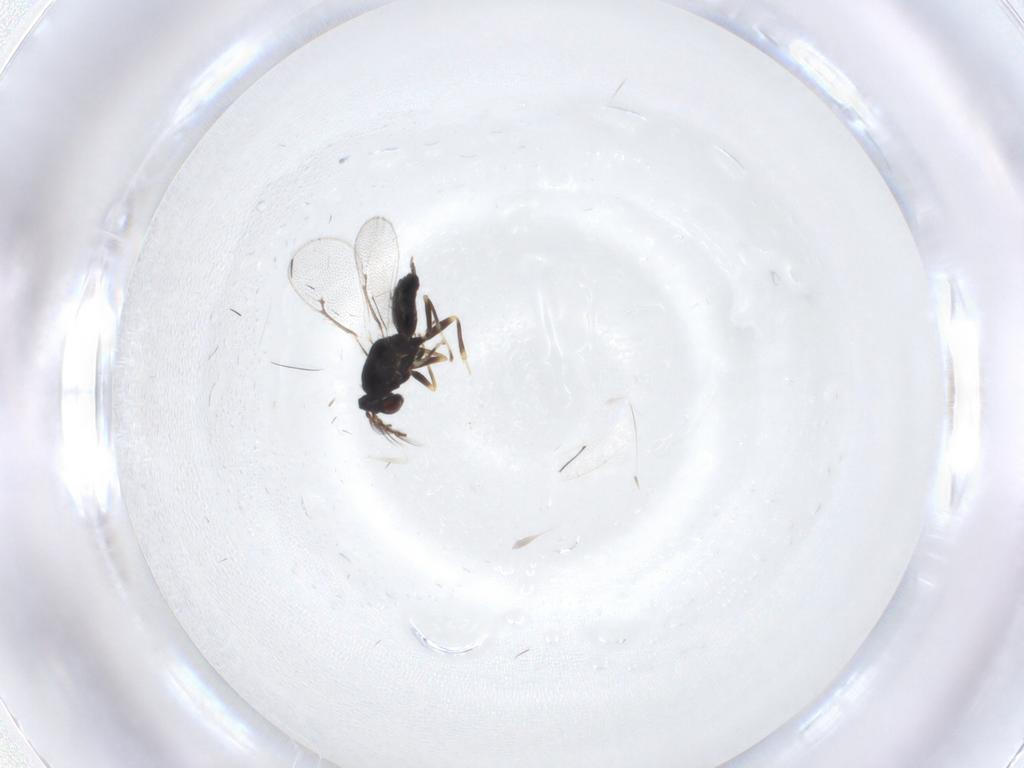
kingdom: Animalia
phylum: Arthropoda
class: Insecta
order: Hymenoptera
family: Eulophidae
